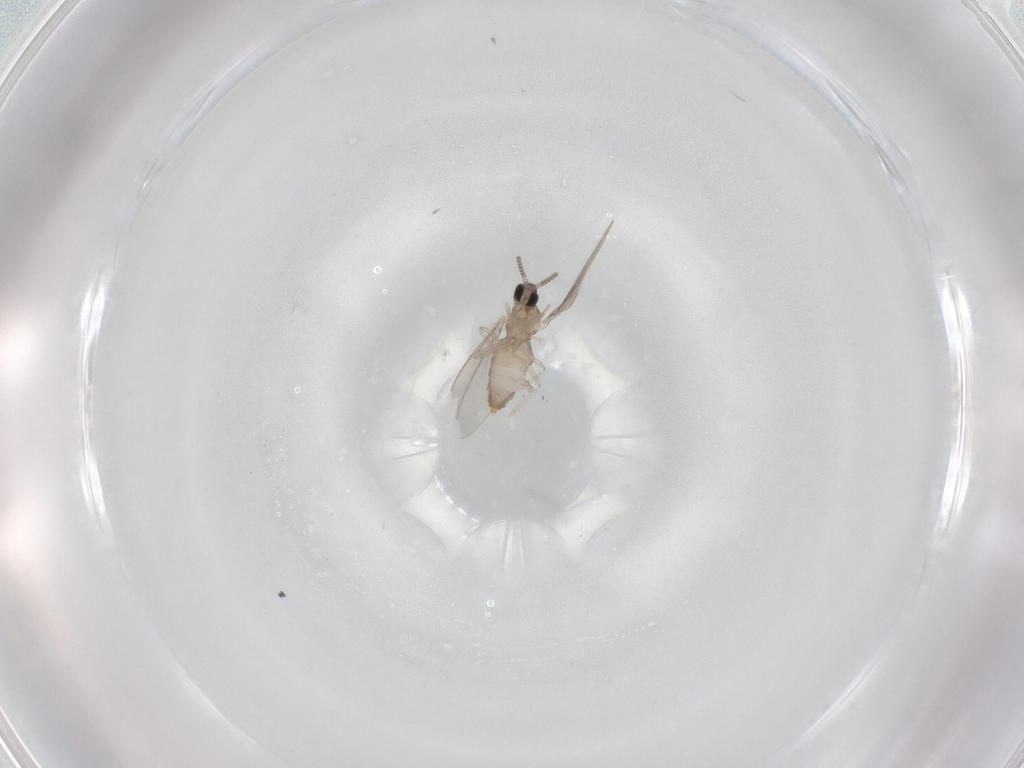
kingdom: Animalia
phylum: Arthropoda
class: Insecta
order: Diptera
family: Cecidomyiidae
